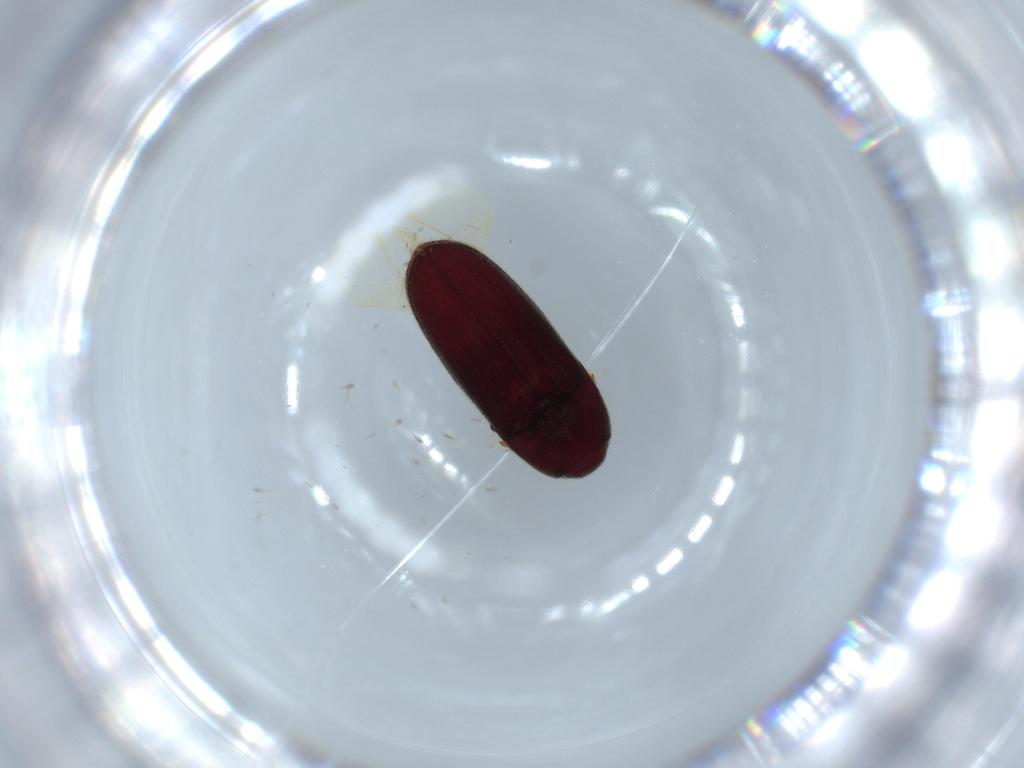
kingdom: Animalia
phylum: Arthropoda
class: Insecta
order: Coleoptera
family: Throscidae
